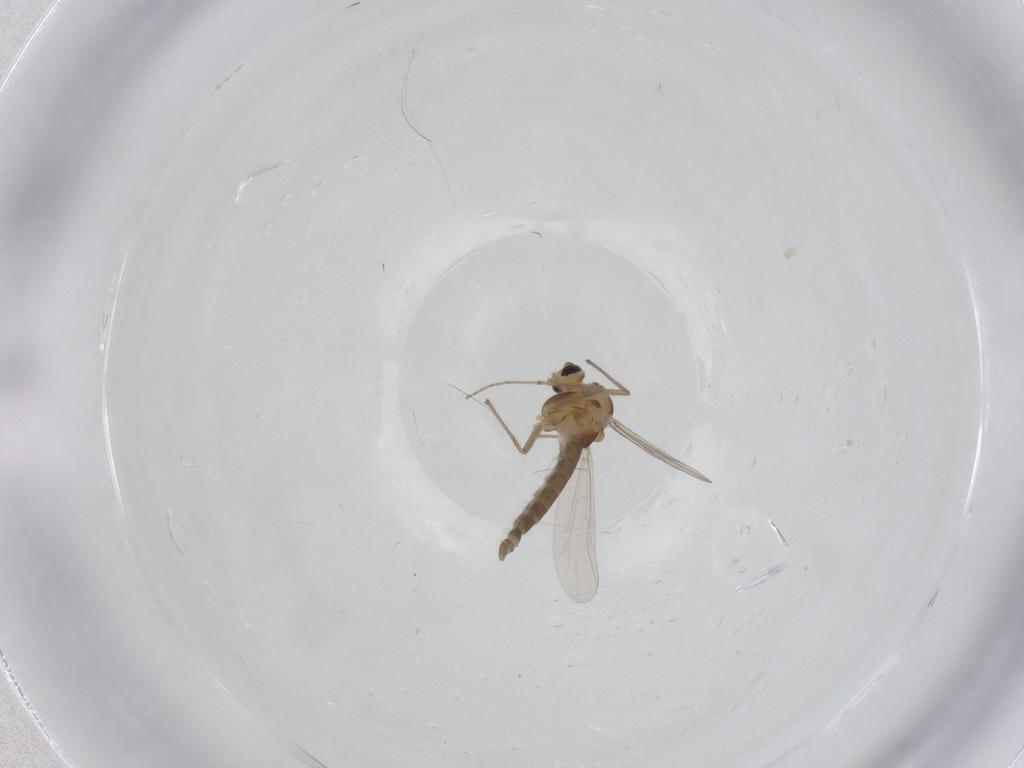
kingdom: Animalia
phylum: Arthropoda
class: Insecta
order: Diptera
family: Chironomidae
